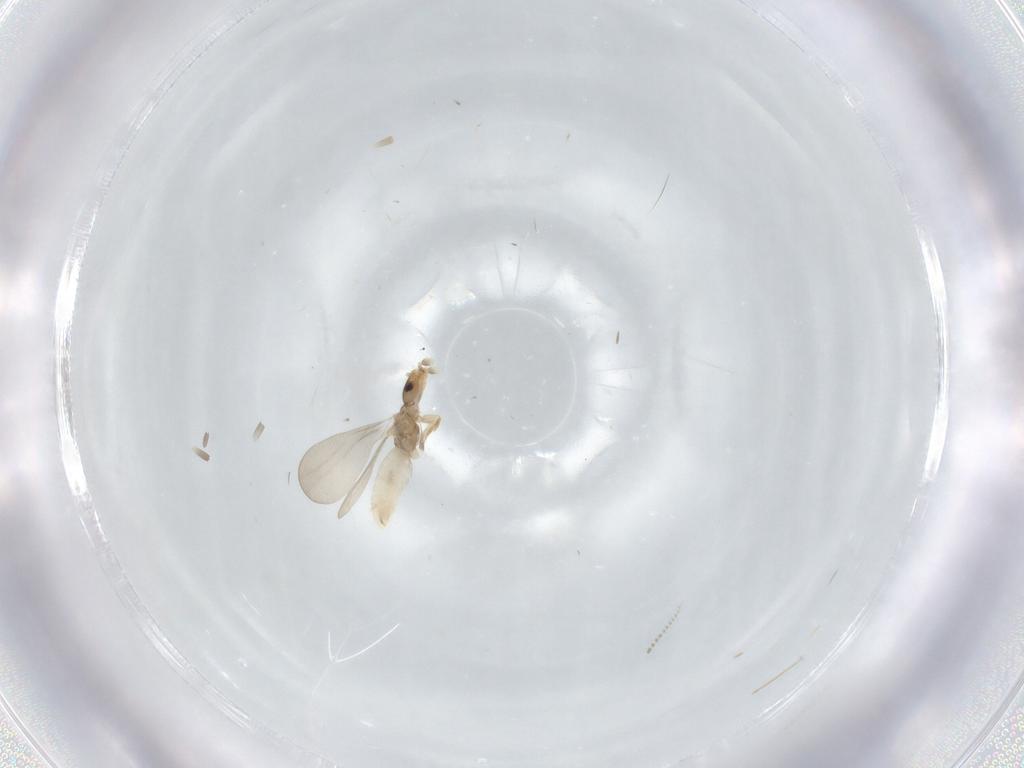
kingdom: Animalia
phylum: Arthropoda
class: Insecta
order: Psocodea
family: Liposcelididae
